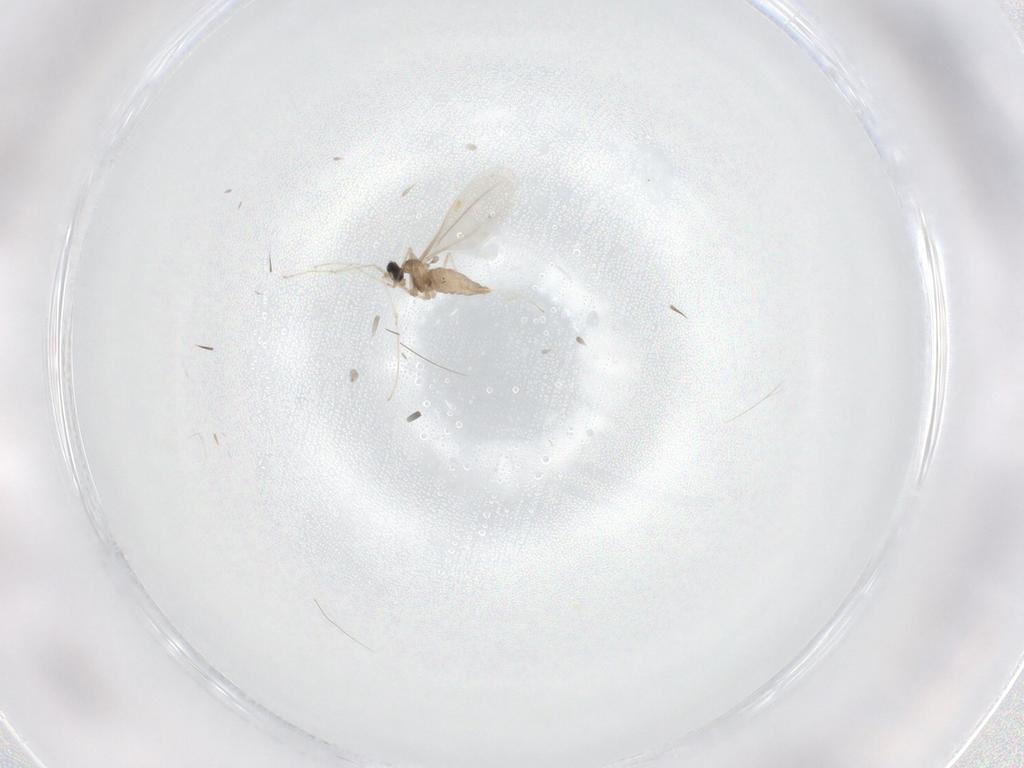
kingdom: Animalia
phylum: Arthropoda
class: Insecta
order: Diptera
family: Cecidomyiidae
